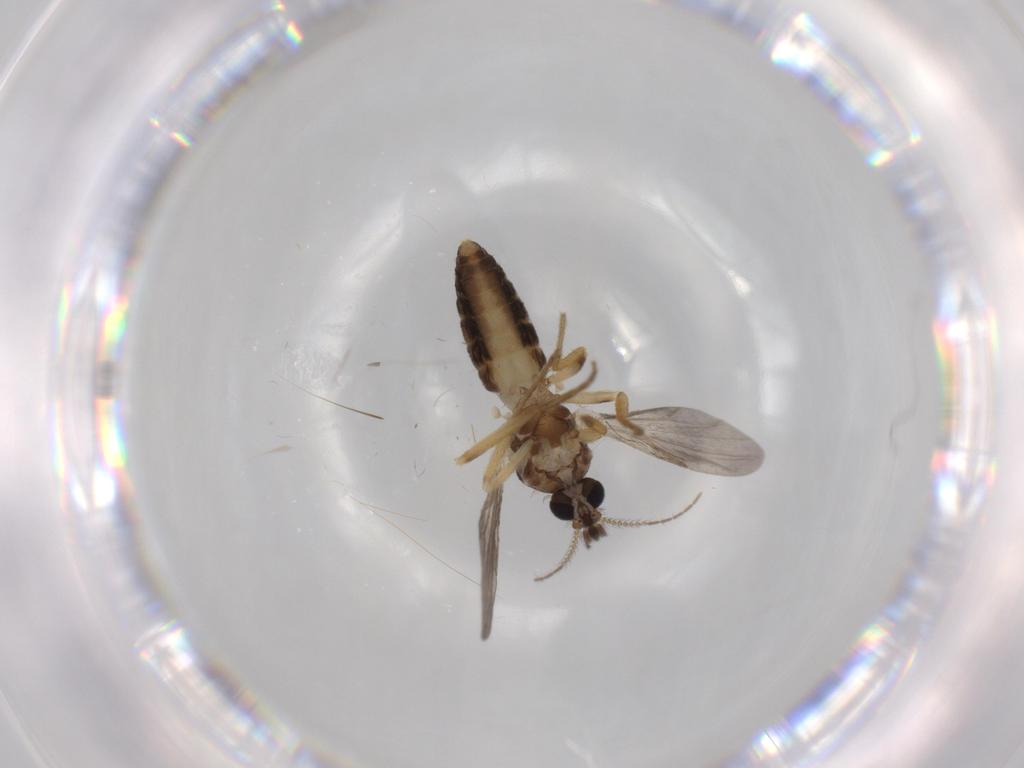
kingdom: Animalia
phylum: Arthropoda
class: Insecta
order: Diptera
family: Ceratopogonidae
